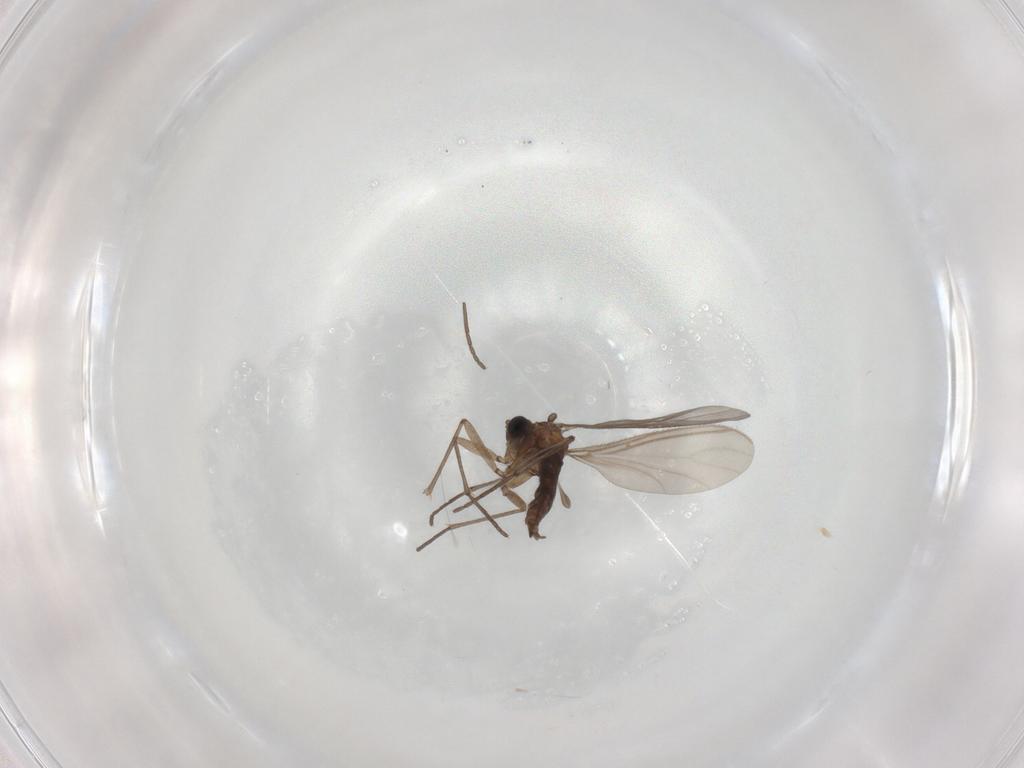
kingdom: Animalia
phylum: Arthropoda
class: Insecta
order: Diptera
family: Sciaridae
